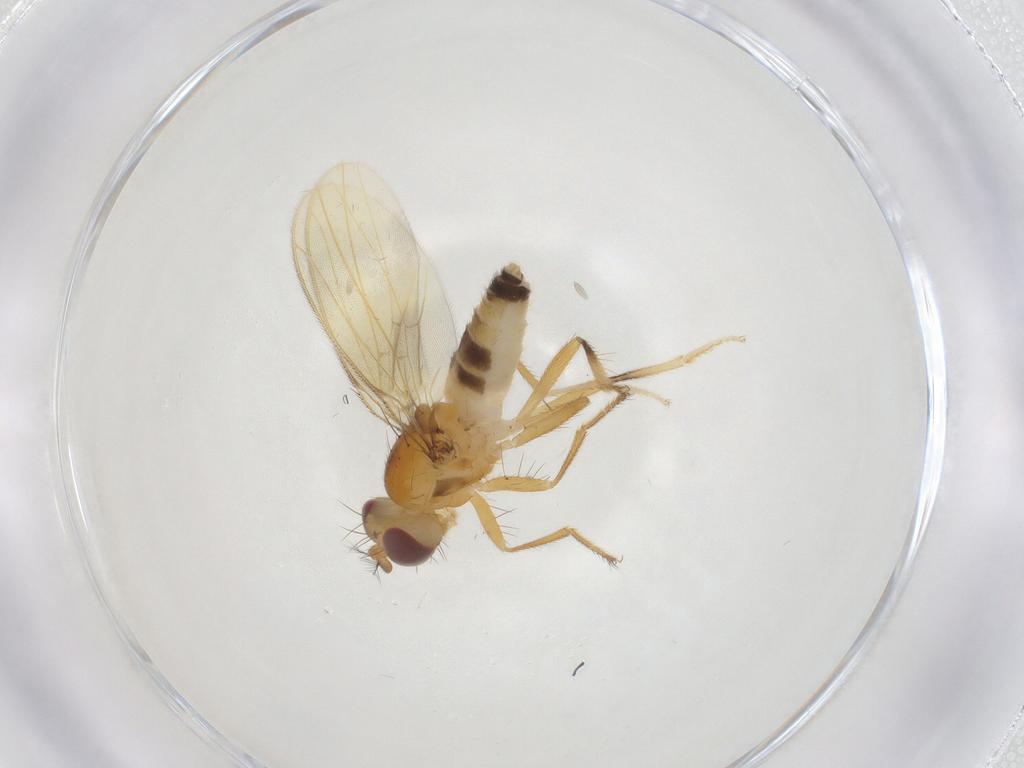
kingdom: Animalia
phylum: Arthropoda
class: Insecta
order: Diptera
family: Periscelididae
